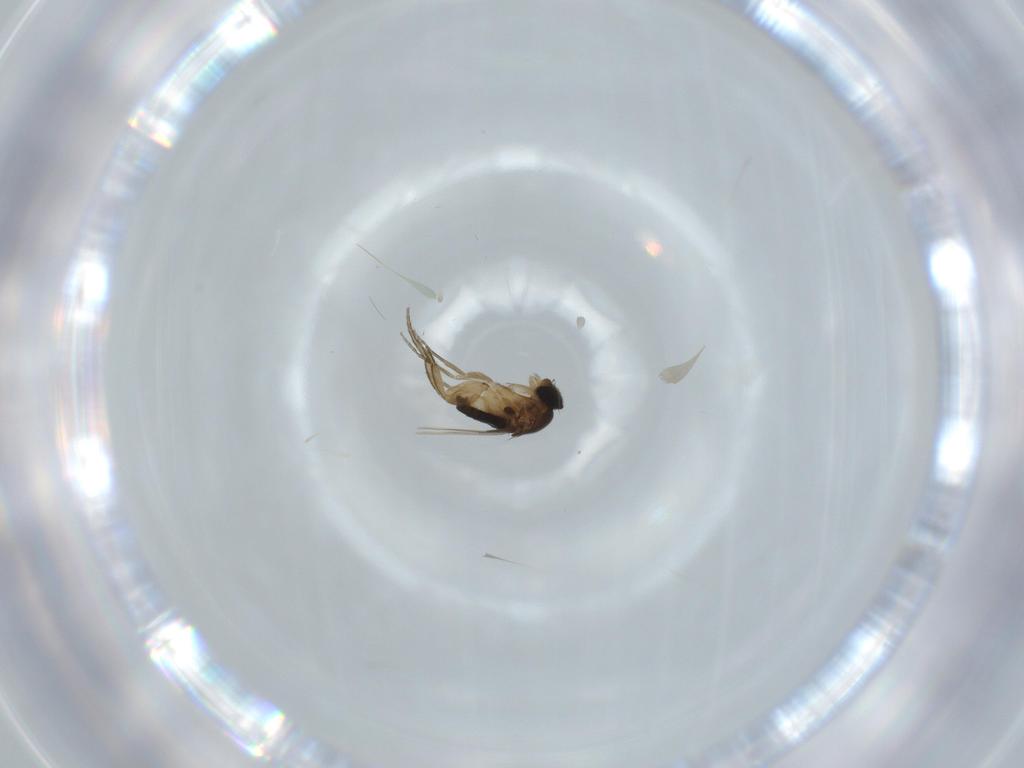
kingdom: Animalia
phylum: Arthropoda
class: Insecta
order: Diptera
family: Phoridae
